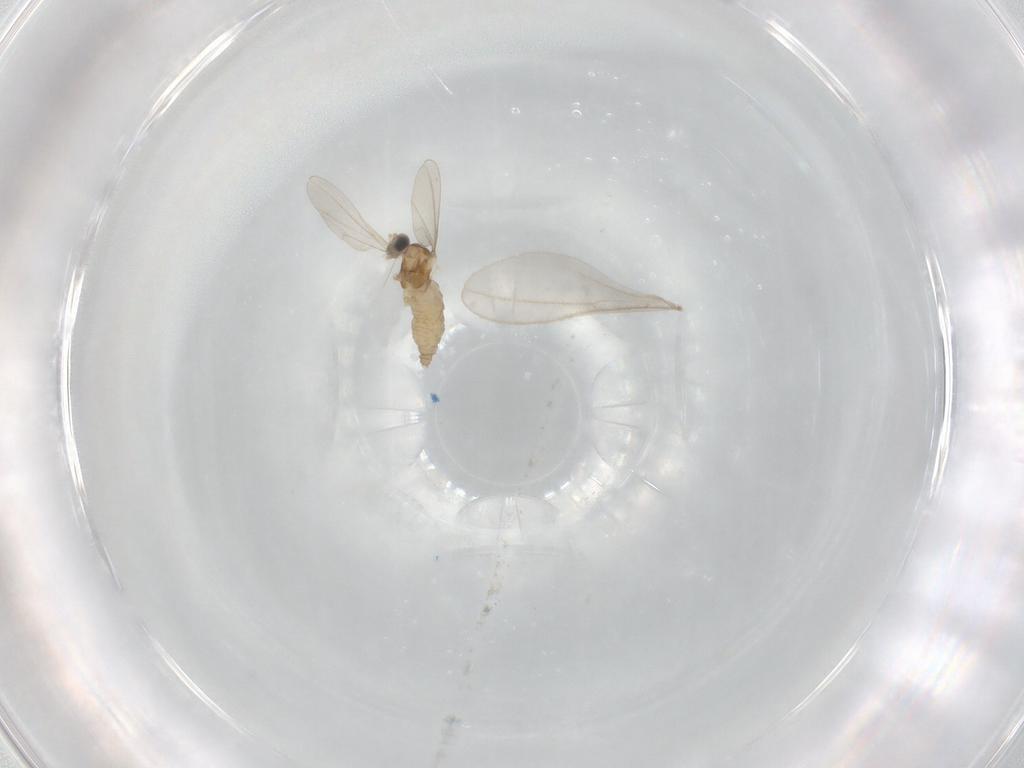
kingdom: Animalia
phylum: Arthropoda
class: Insecta
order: Diptera
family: Cecidomyiidae
